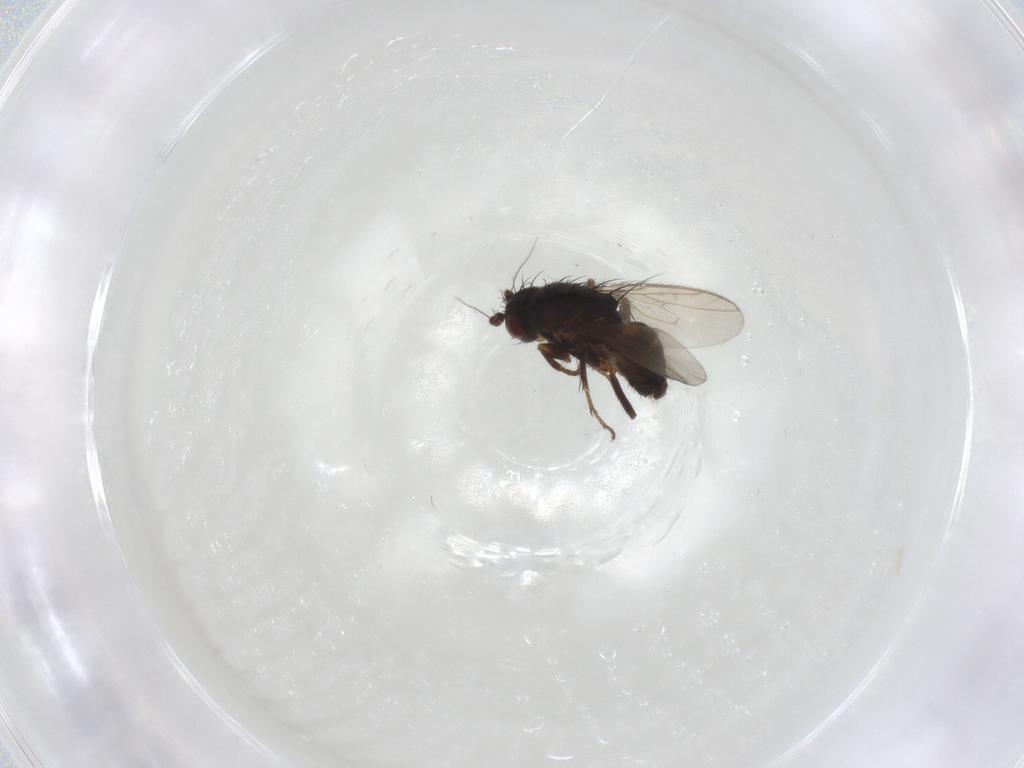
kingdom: Animalia
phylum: Arthropoda
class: Insecta
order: Diptera
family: Sphaeroceridae
